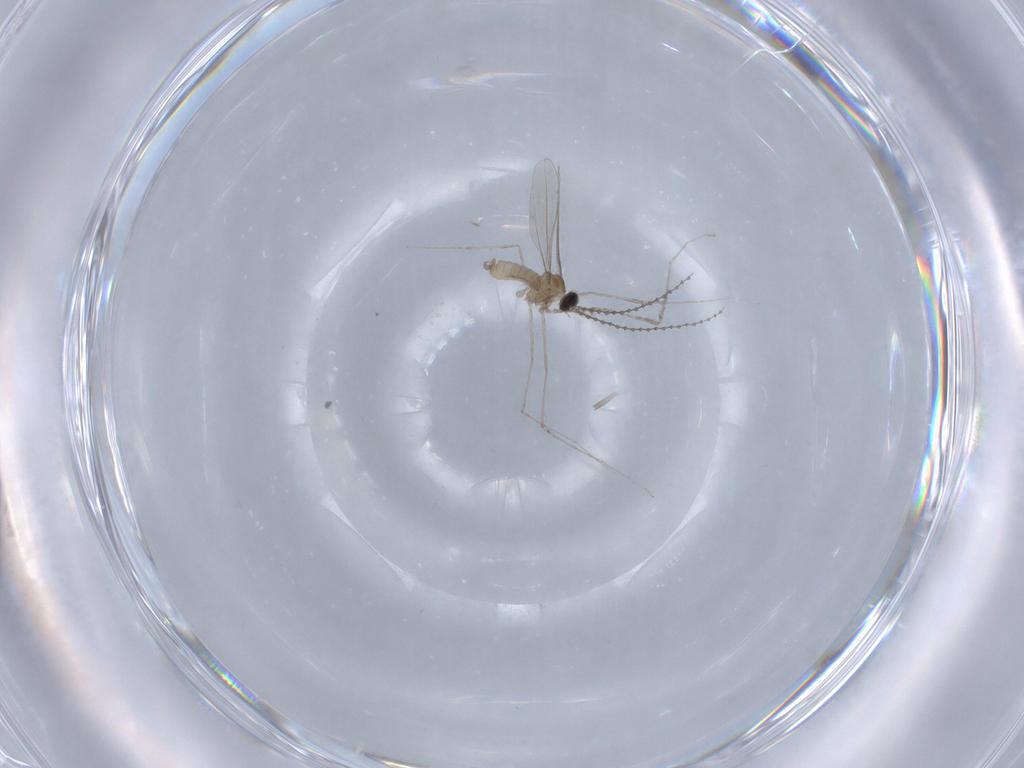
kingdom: Animalia
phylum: Arthropoda
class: Insecta
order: Diptera
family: Cecidomyiidae
